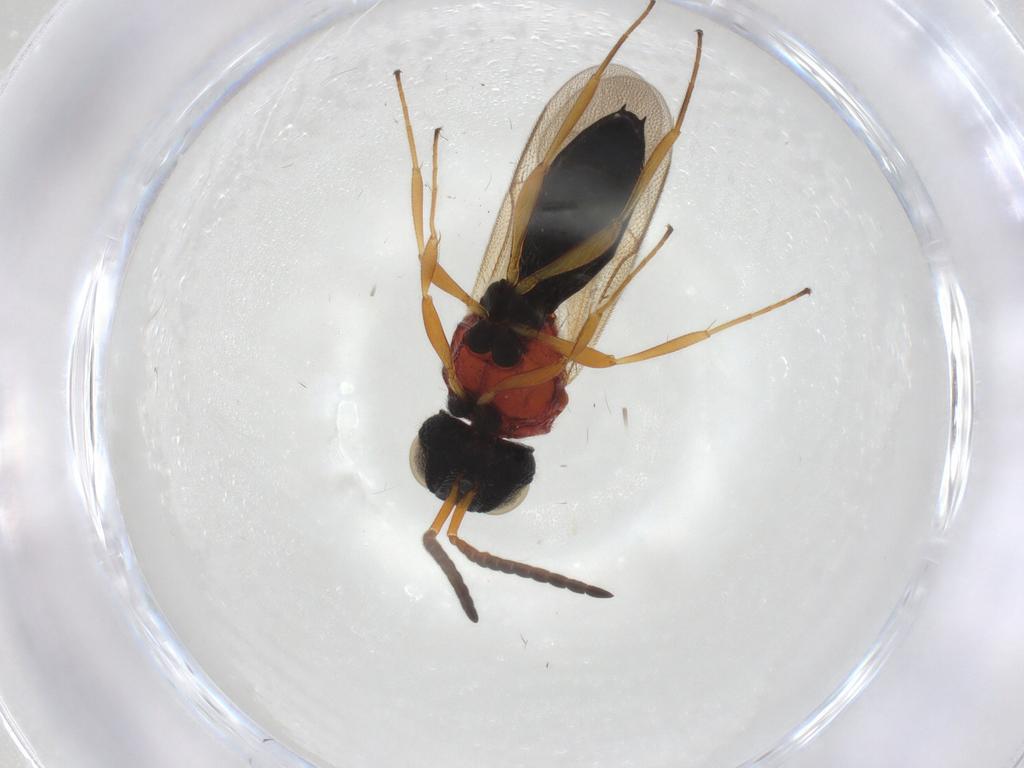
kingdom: Animalia
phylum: Arthropoda
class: Insecta
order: Hymenoptera
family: Scelionidae
